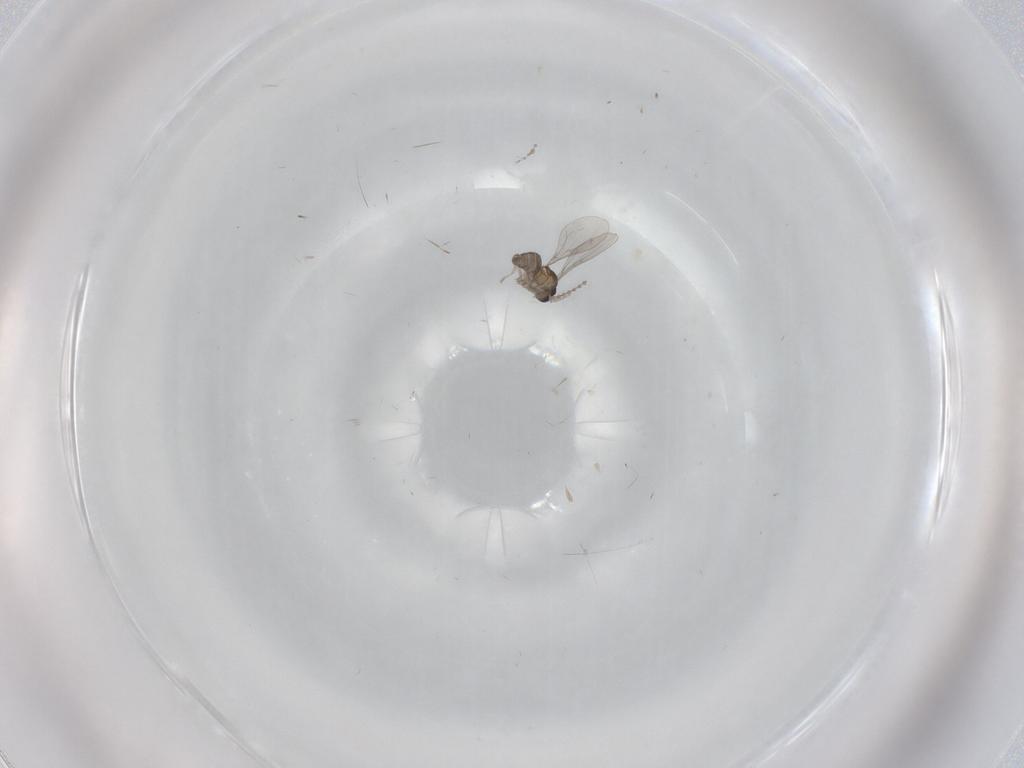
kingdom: Animalia
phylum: Arthropoda
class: Insecta
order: Diptera
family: Cecidomyiidae
